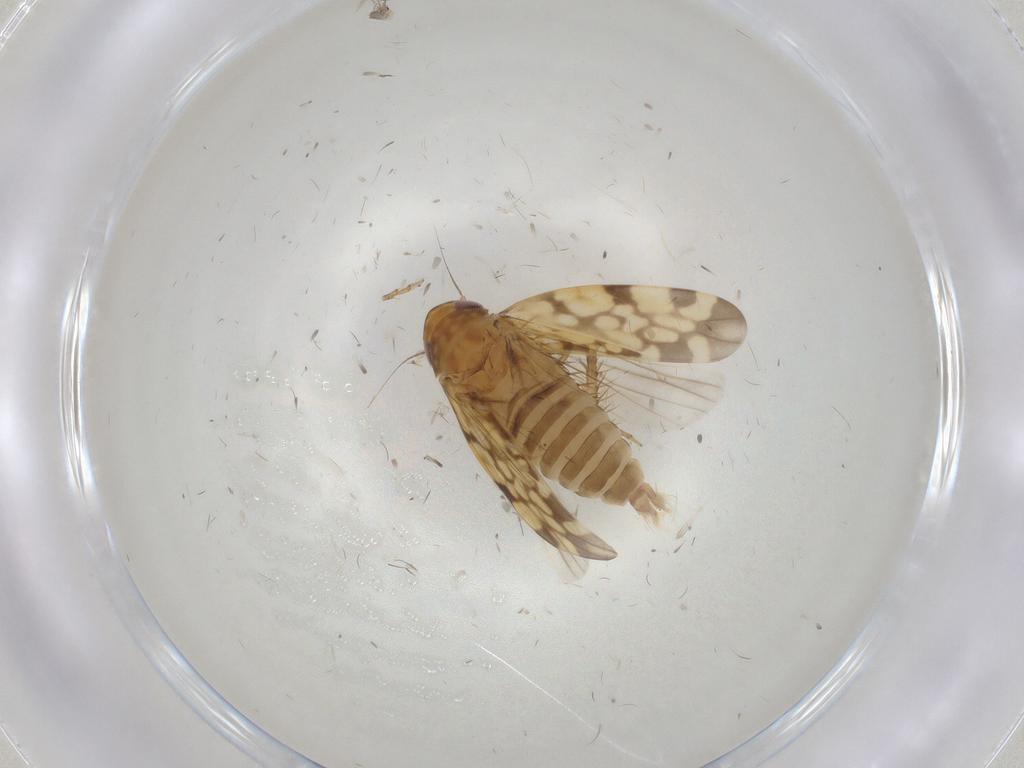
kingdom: Animalia
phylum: Arthropoda
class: Insecta
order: Hemiptera
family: Cicadellidae
